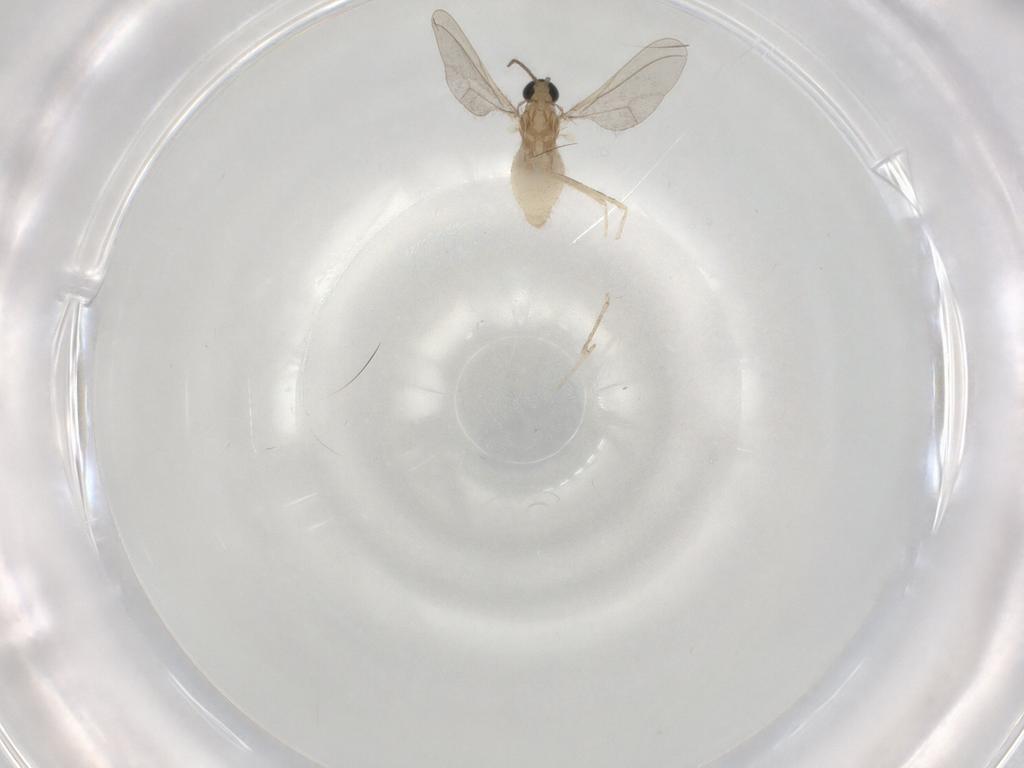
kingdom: Animalia
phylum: Arthropoda
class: Insecta
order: Diptera
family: Cecidomyiidae
